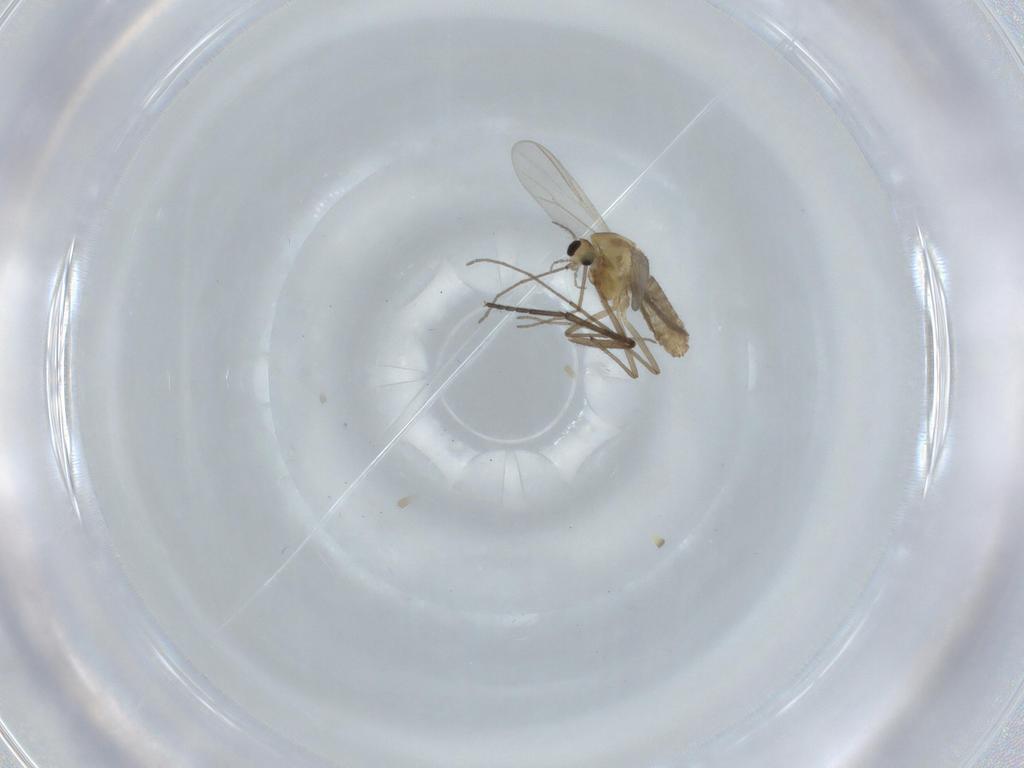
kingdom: Animalia
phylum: Arthropoda
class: Insecta
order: Diptera
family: Chironomidae
